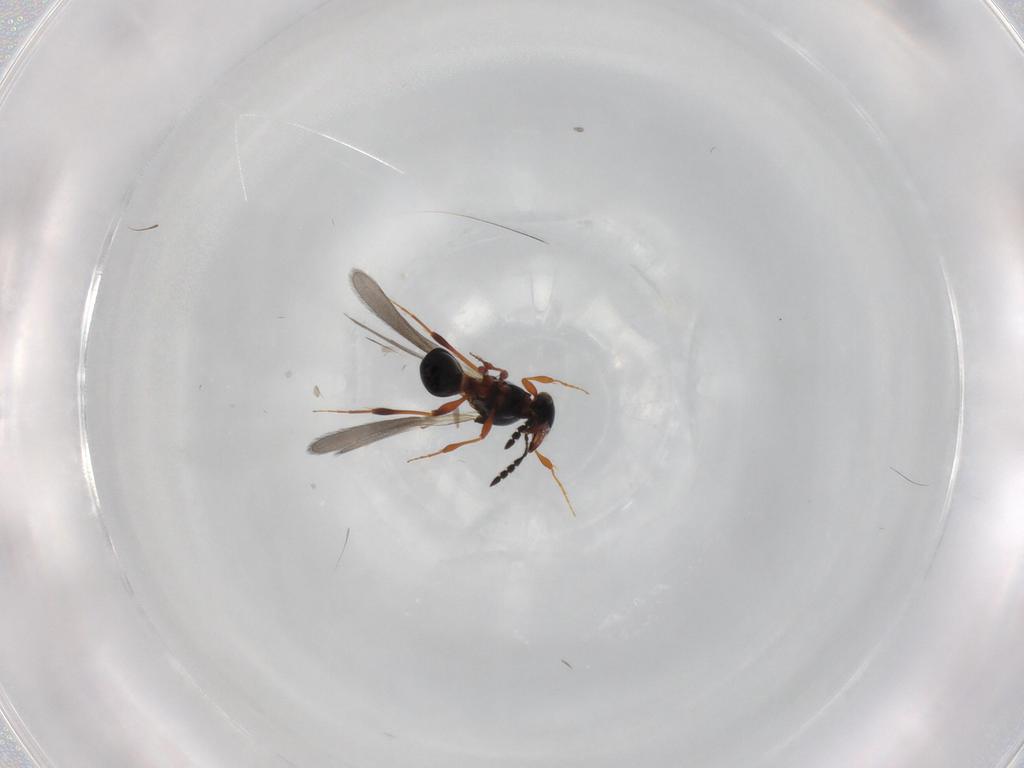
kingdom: Animalia
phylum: Arthropoda
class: Insecta
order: Hymenoptera
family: Platygastridae
